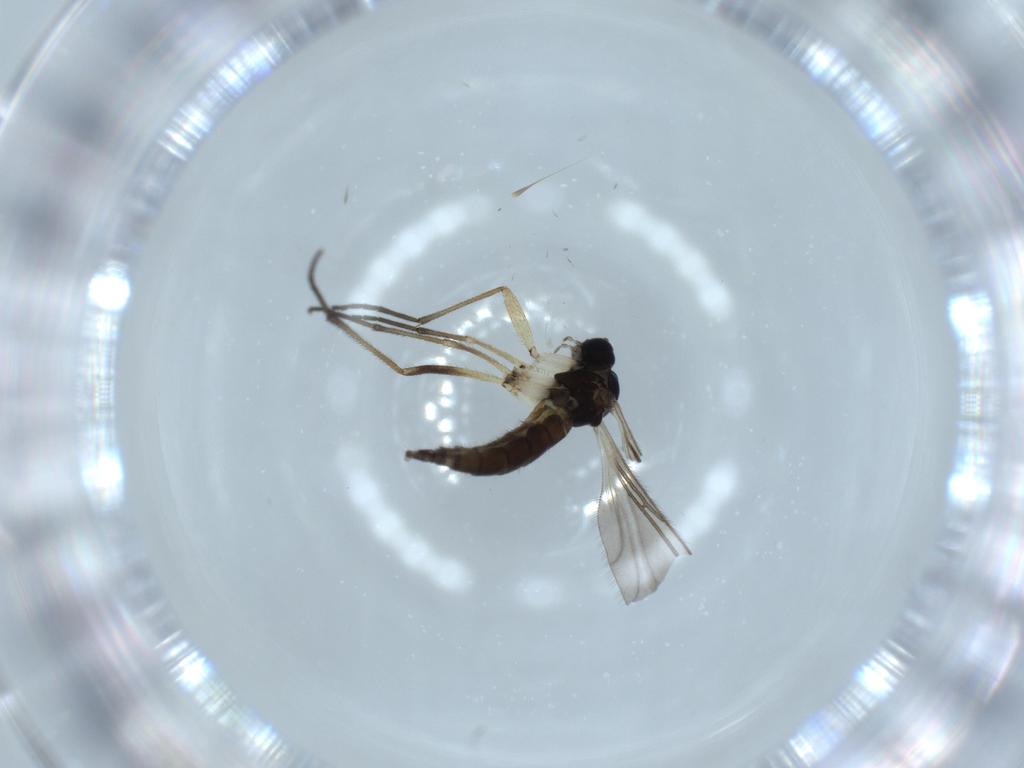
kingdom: Animalia
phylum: Arthropoda
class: Insecta
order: Diptera
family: Sciaridae
